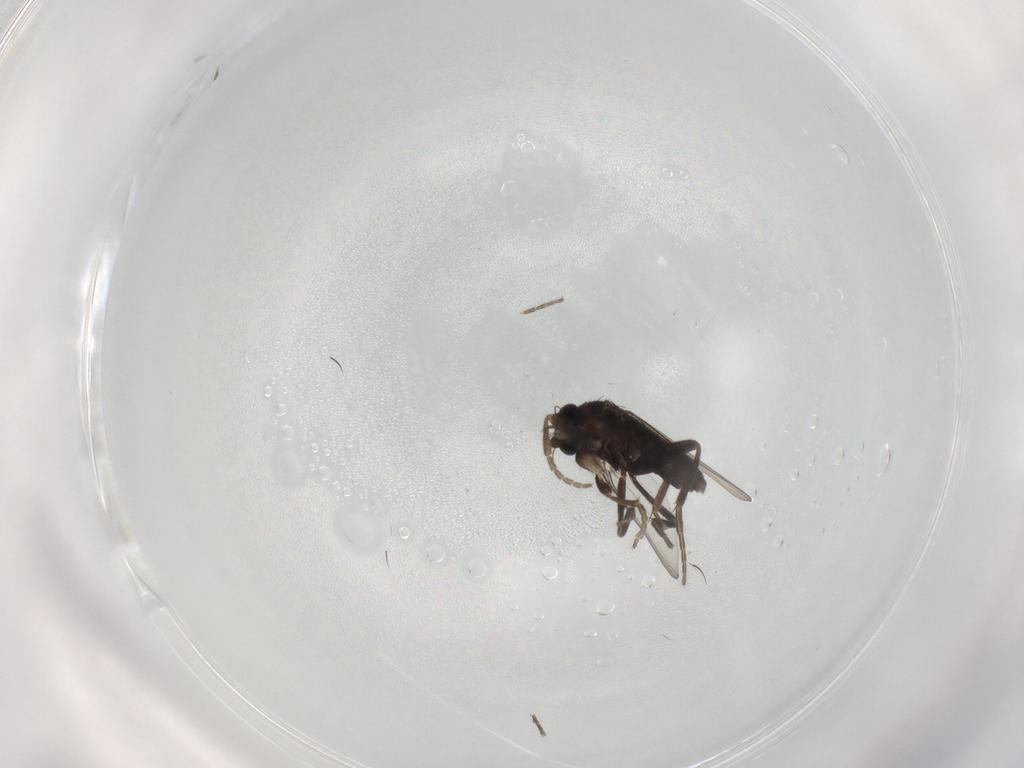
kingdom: Animalia
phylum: Arthropoda
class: Insecta
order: Diptera
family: Phoridae
